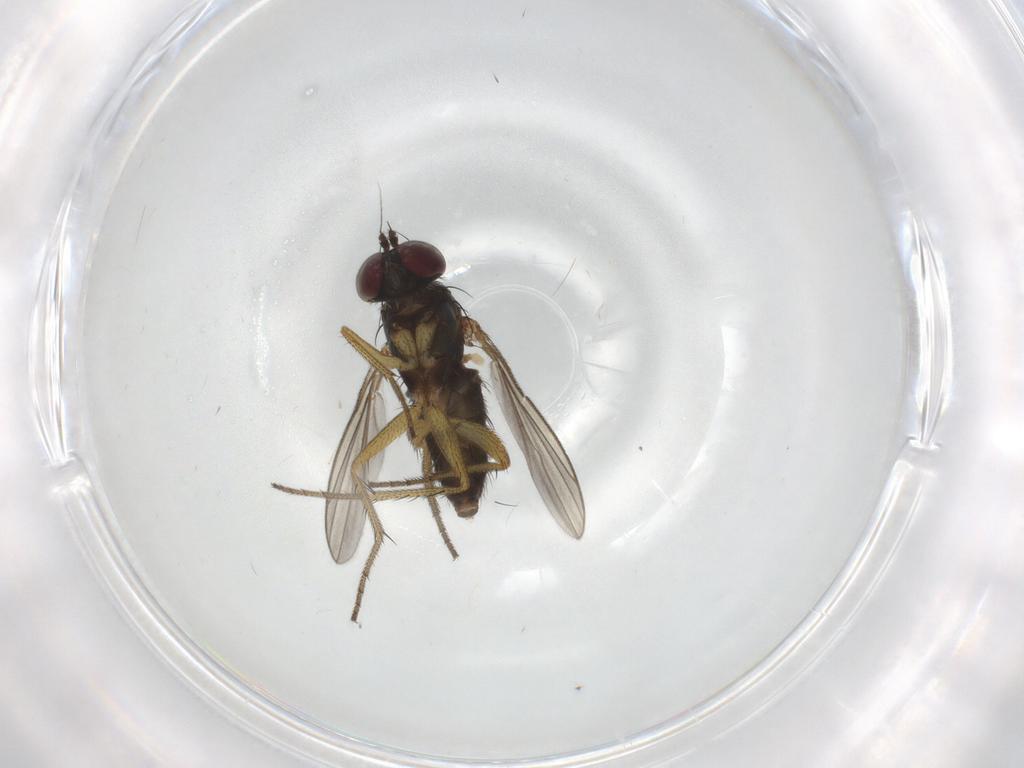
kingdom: Animalia
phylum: Arthropoda
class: Insecta
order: Diptera
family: Dolichopodidae
